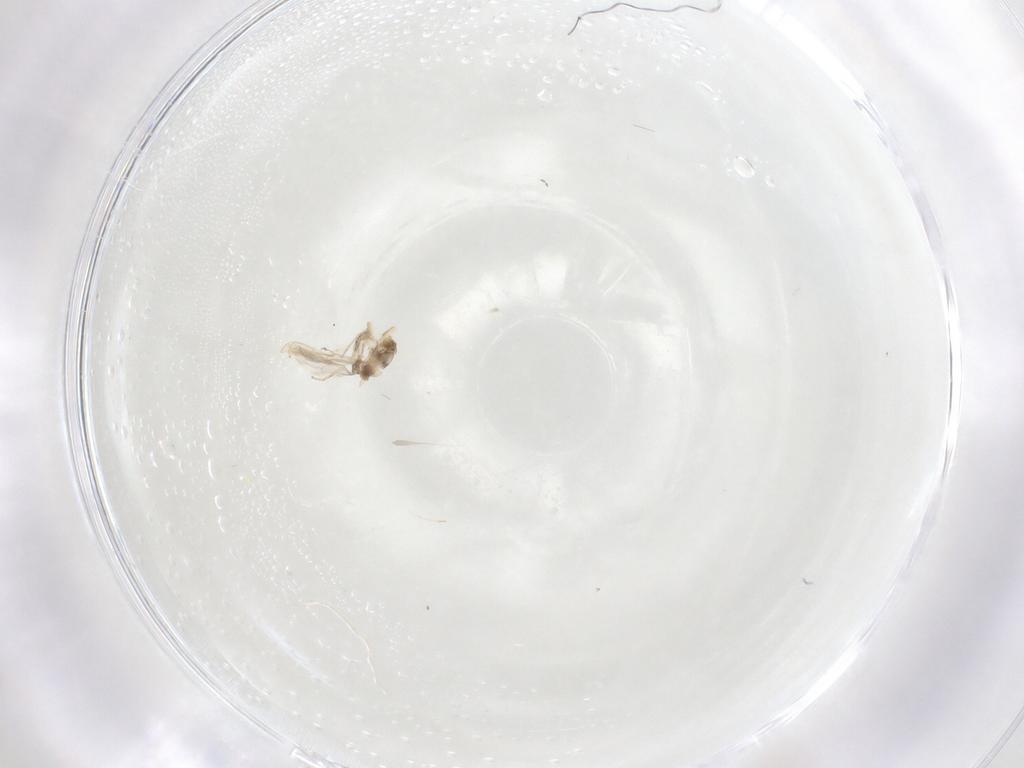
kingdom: Animalia
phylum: Arthropoda
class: Insecta
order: Diptera
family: Cecidomyiidae
